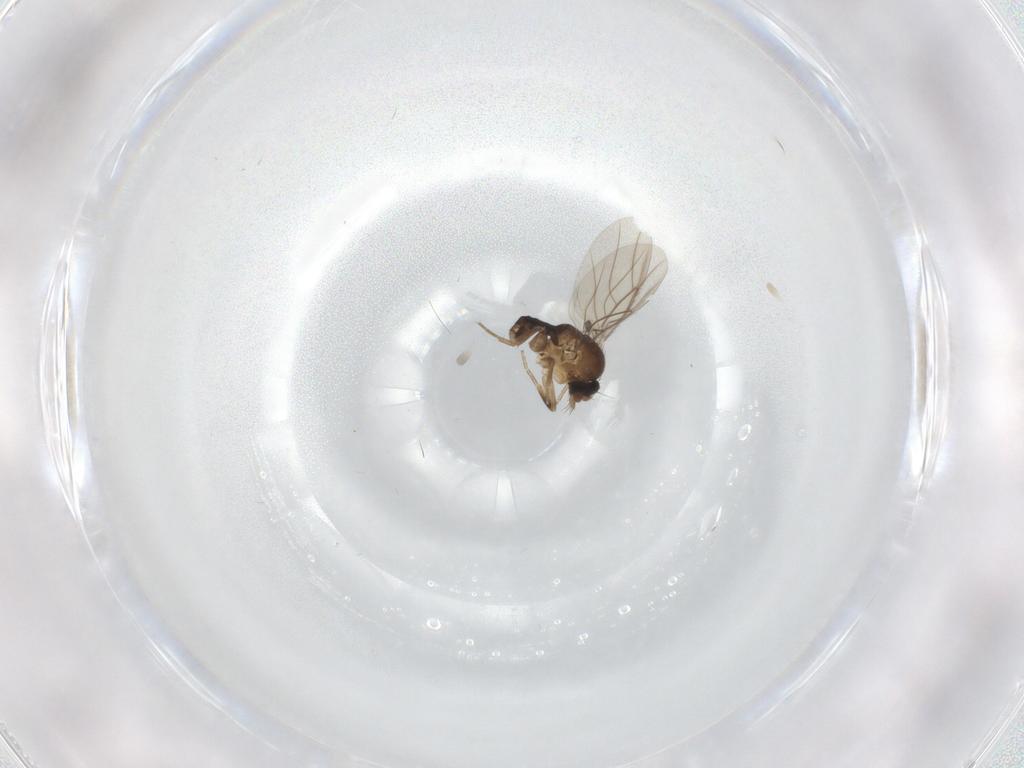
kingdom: Animalia
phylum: Arthropoda
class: Insecta
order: Diptera
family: Phoridae
